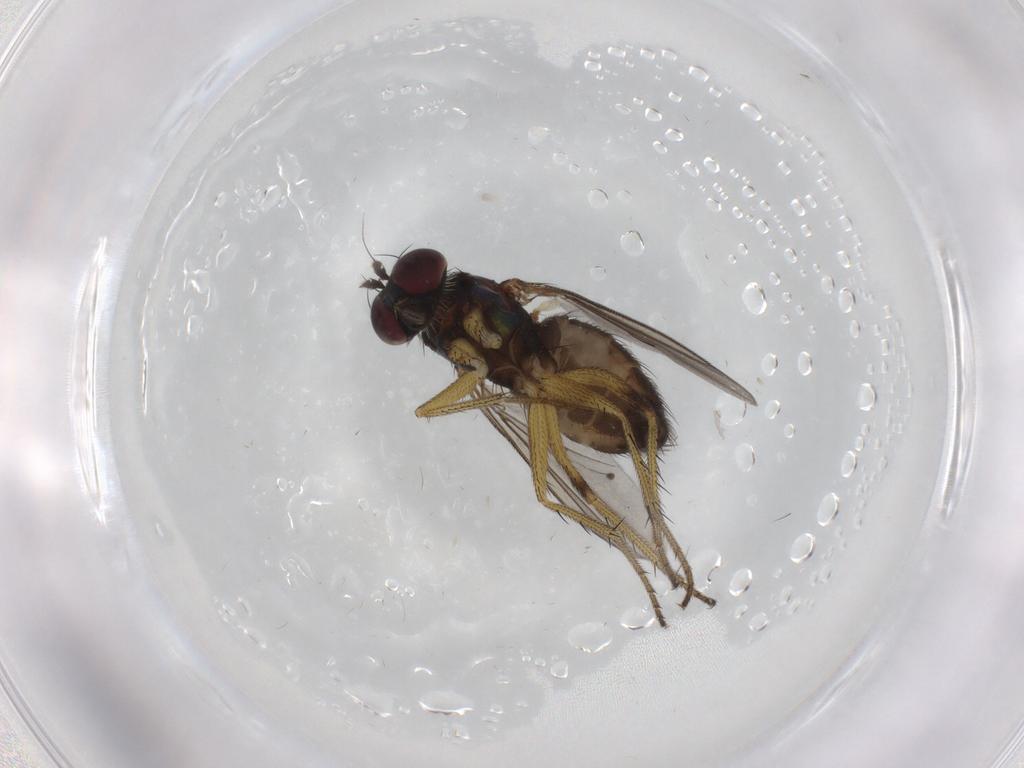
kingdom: Animalia
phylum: Arthropoda
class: Insecta
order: Diptera
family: Dolichopodidae
